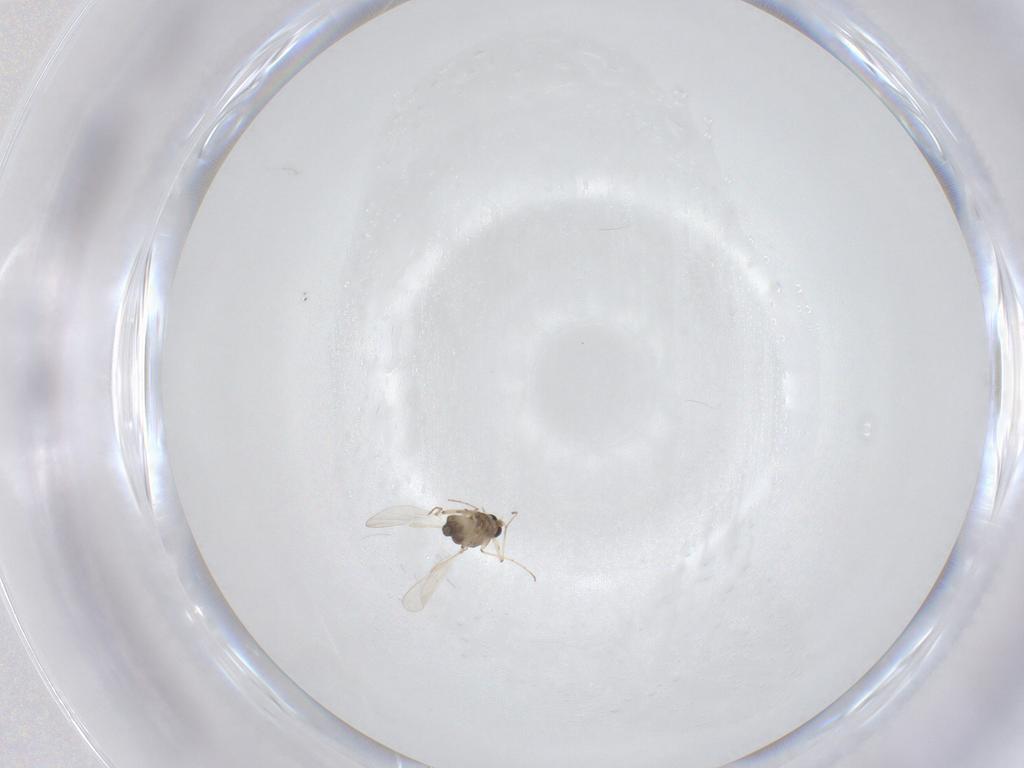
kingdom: Animalia
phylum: Arthropoda
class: Insecta
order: Diptera
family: Chironomidae
